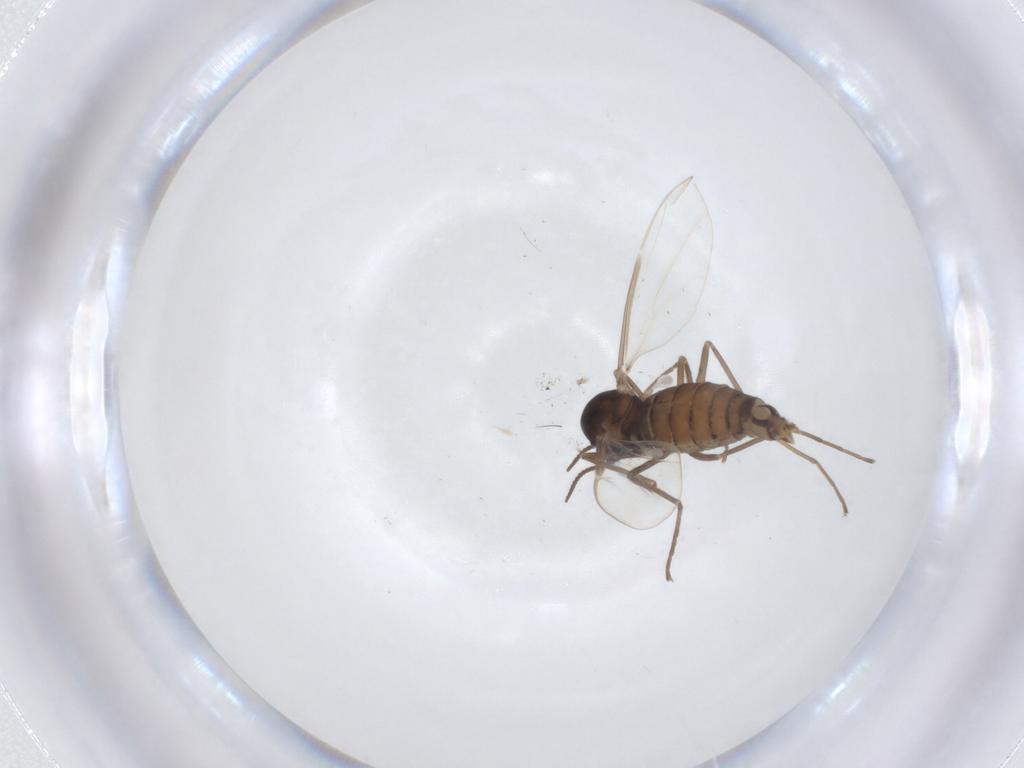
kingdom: Animalia
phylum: Arthropoda
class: Insecta
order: Diptera
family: Cecidomyiidae
